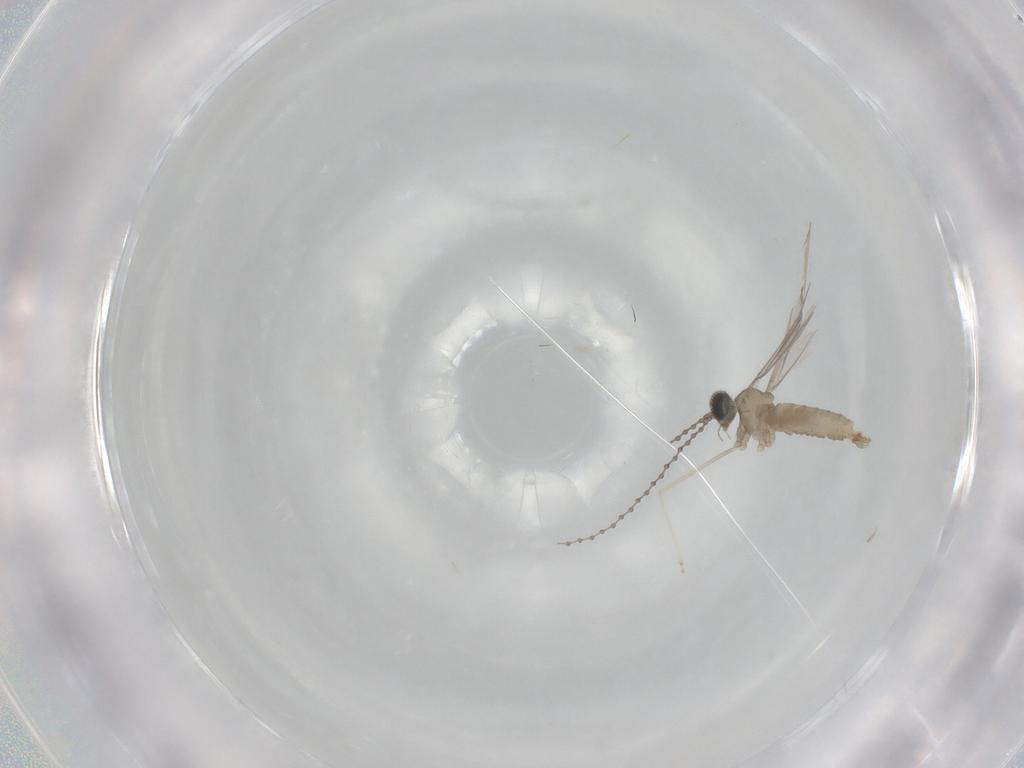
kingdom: Animalia
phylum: Arthropoda
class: Insecta
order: Diptera
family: Cecidomyiidae
